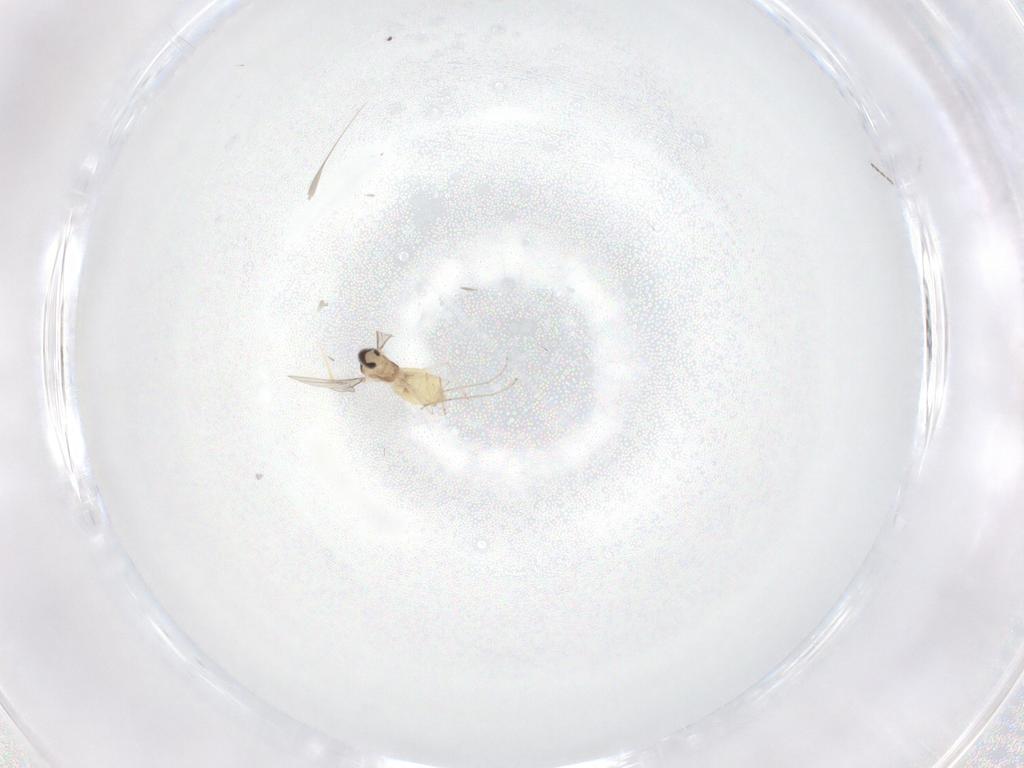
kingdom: Animalia
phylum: Arthropoda
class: Insecta
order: Diptera
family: Cecidomyiidae
